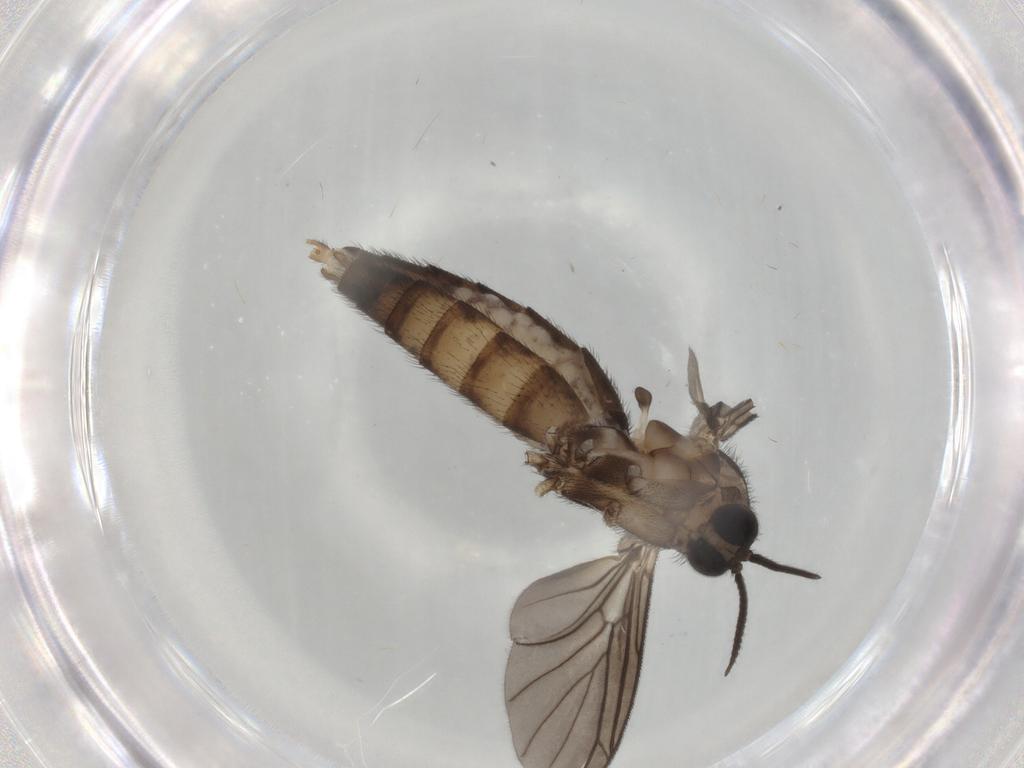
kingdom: Animalia
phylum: Arthropoda
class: Insecta
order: Diptera
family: Keroplatidae
